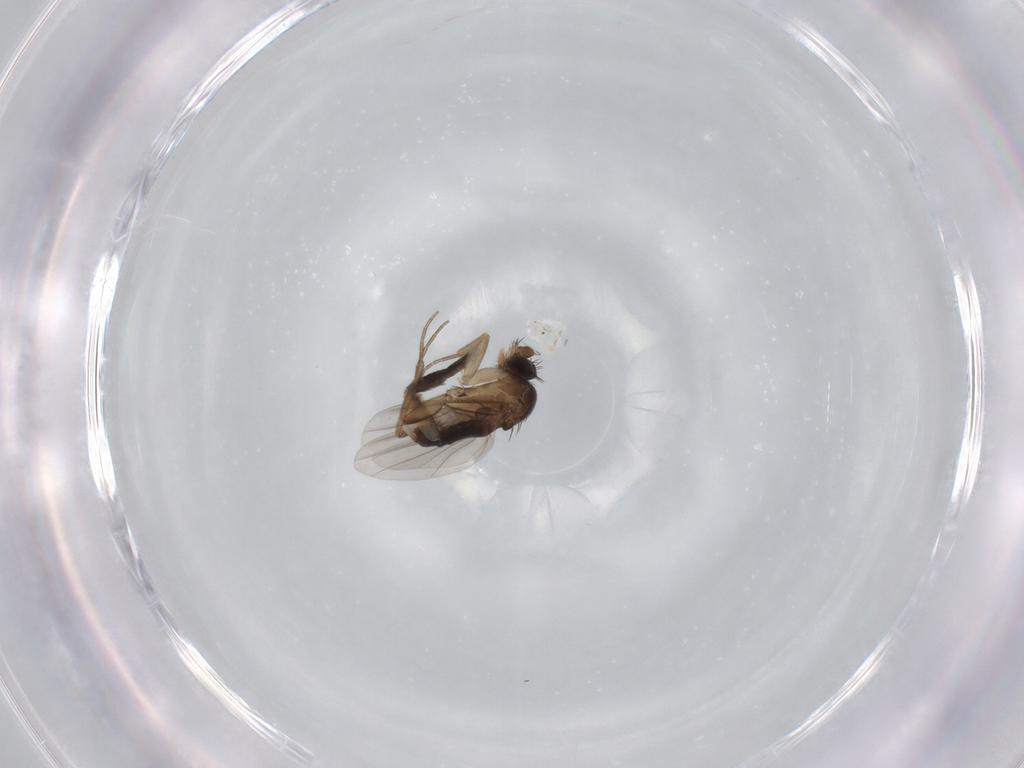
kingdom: Animalia
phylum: Arthropoda
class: Insecta
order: Diptera
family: Phoridae
